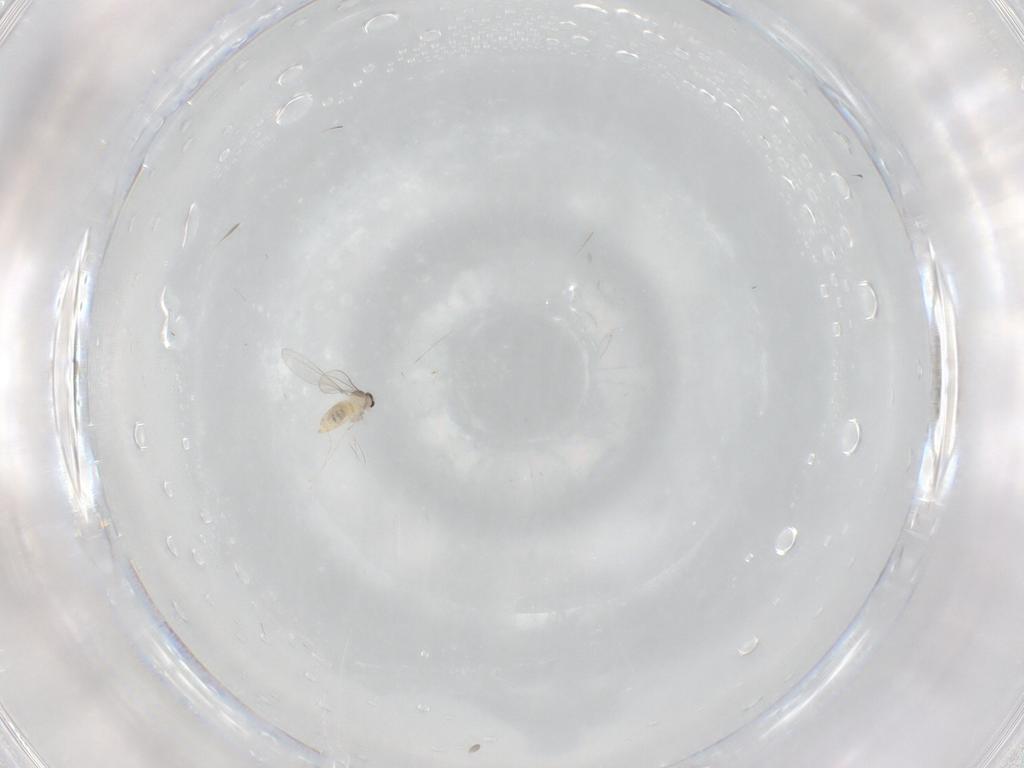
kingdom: Animalia
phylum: Arthropoda
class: Insecta
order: Diptera
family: Cecidomyiidae
